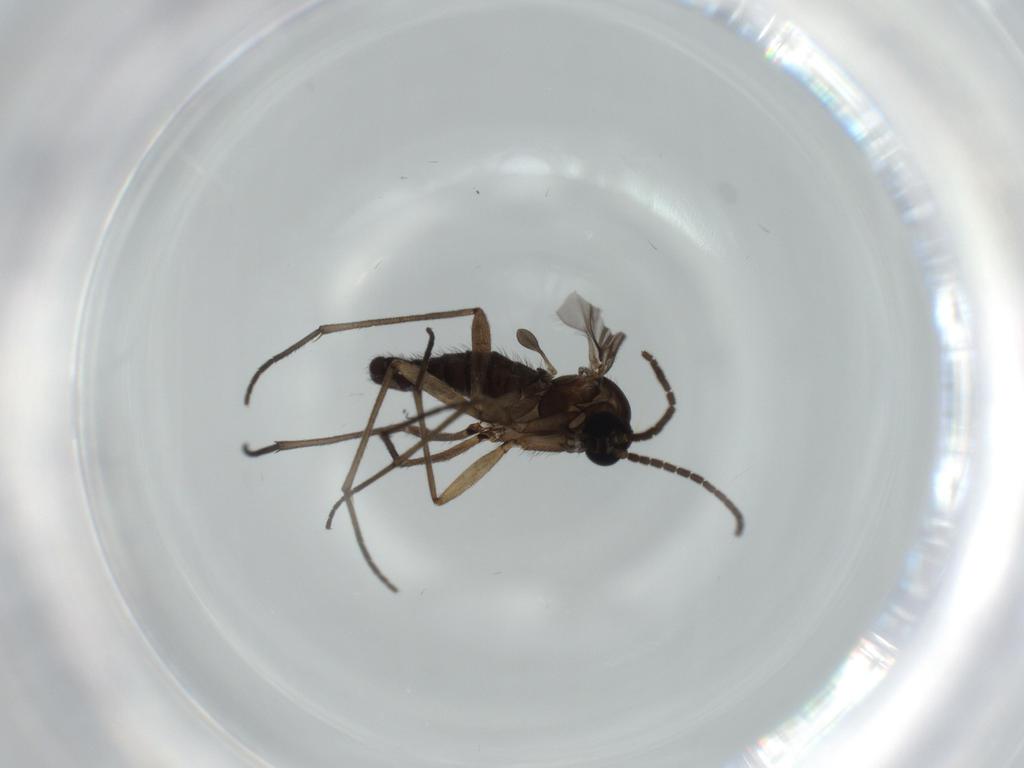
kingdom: Animalia
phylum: Arthropoda
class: Insecta
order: Diptera
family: Sciaridae
